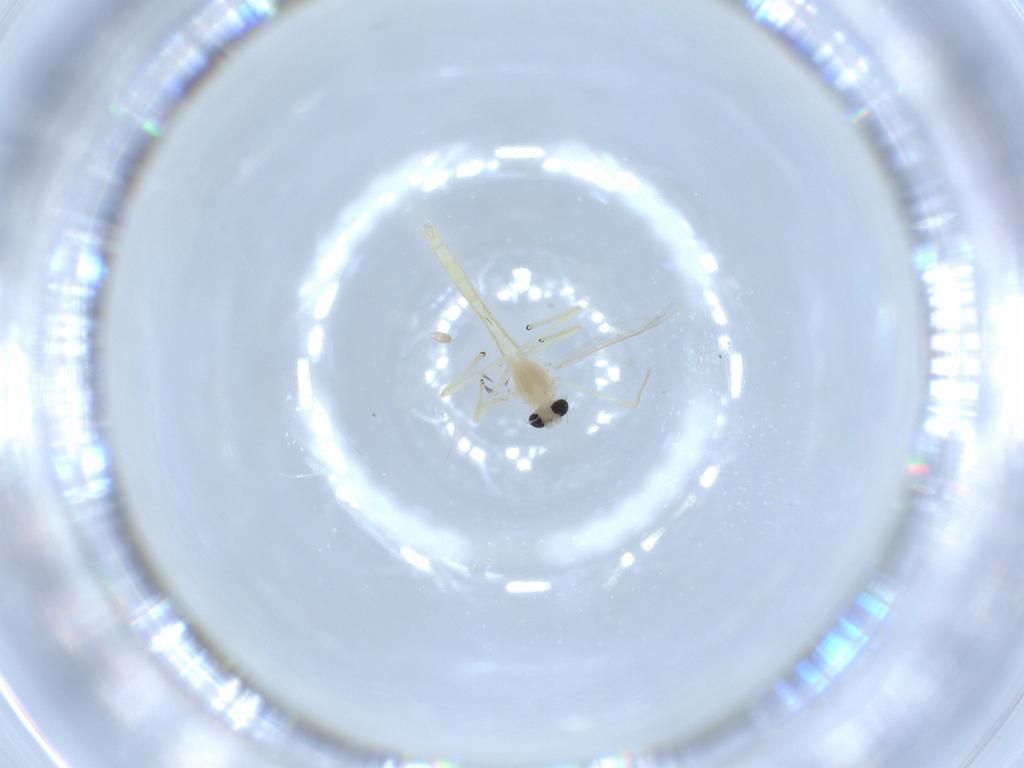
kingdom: Animalia
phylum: Arthropoda
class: Insecta
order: Diptera
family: Chironomidae
